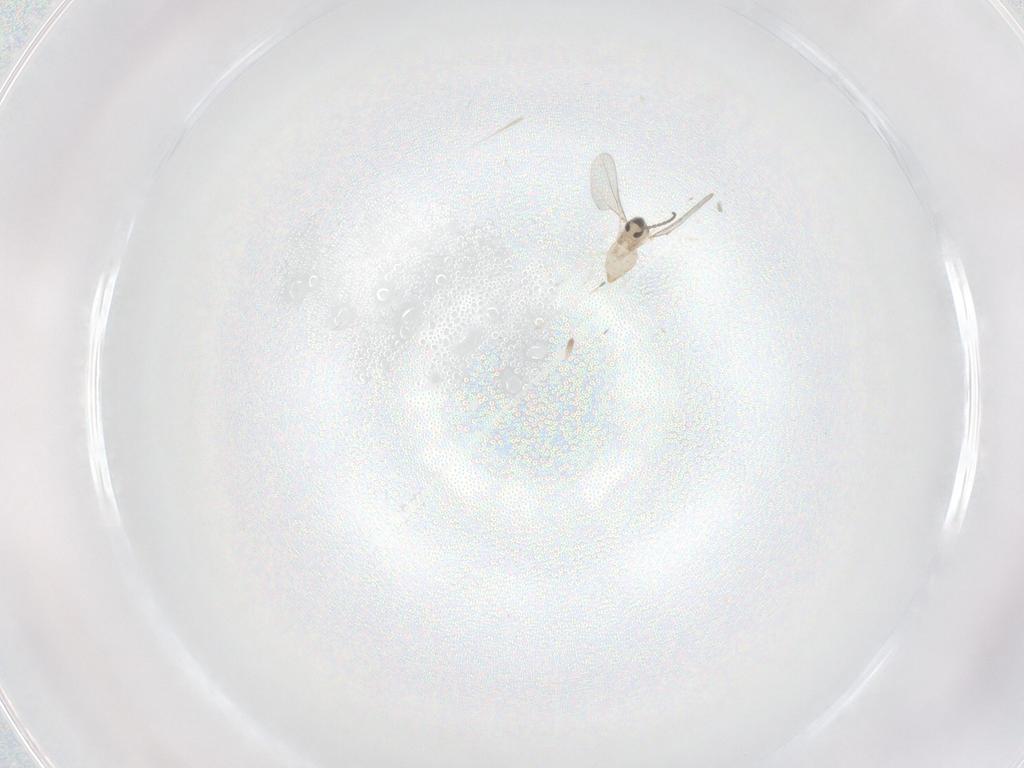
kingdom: Animalia
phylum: Arthropoda
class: Insecta
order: Diptera
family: Cecidomyiidae
